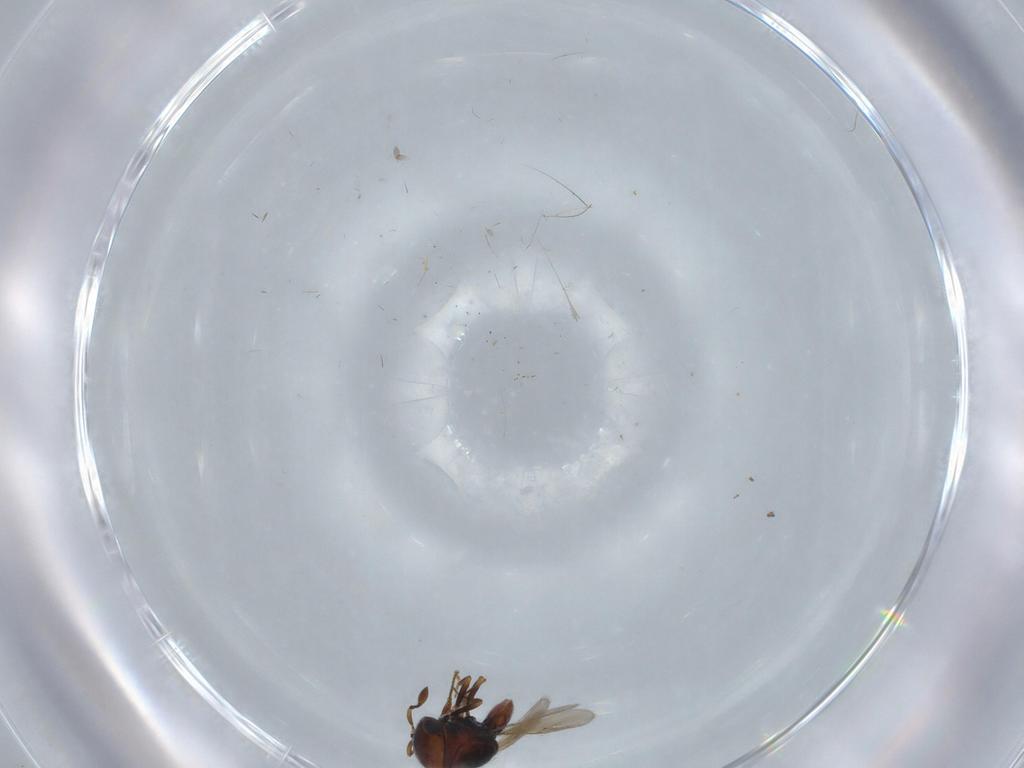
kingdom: Animalia
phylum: Arthropoda
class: Insecta
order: Hymenoptera
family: Scelionidae
